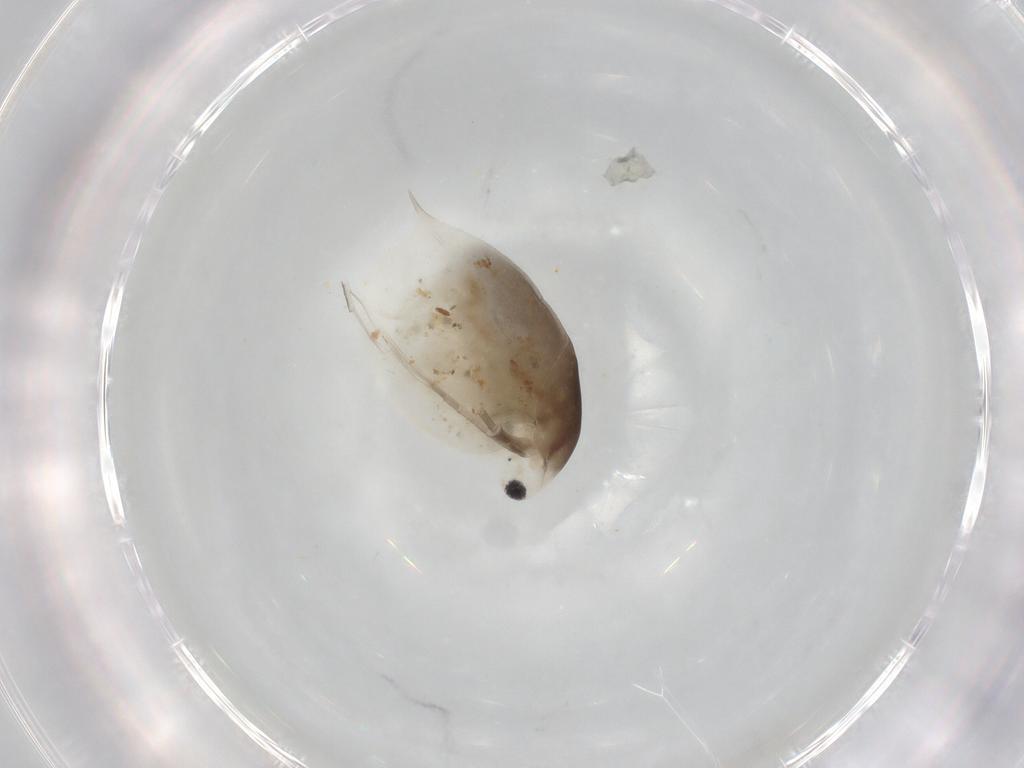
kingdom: Animalia
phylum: Arthropoda
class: Branchiopoda
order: Diplostraca
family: Daphniidae
